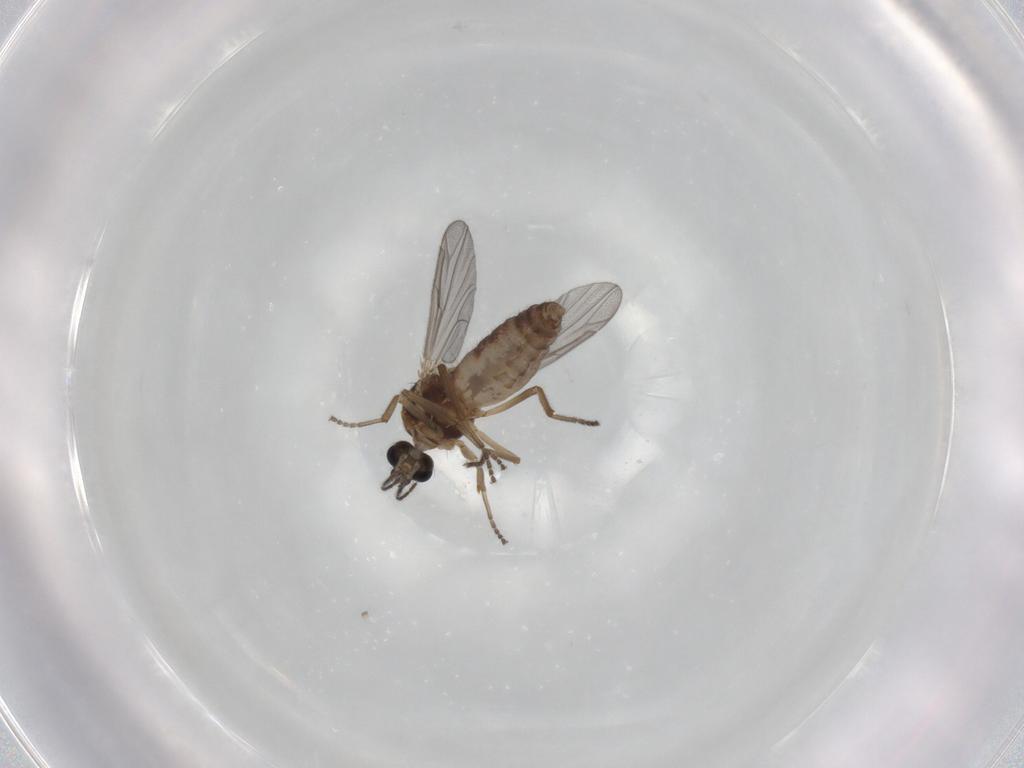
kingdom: Animalia
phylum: Arthropoda
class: Insecta
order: Diptera
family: Ceratopogonidae
